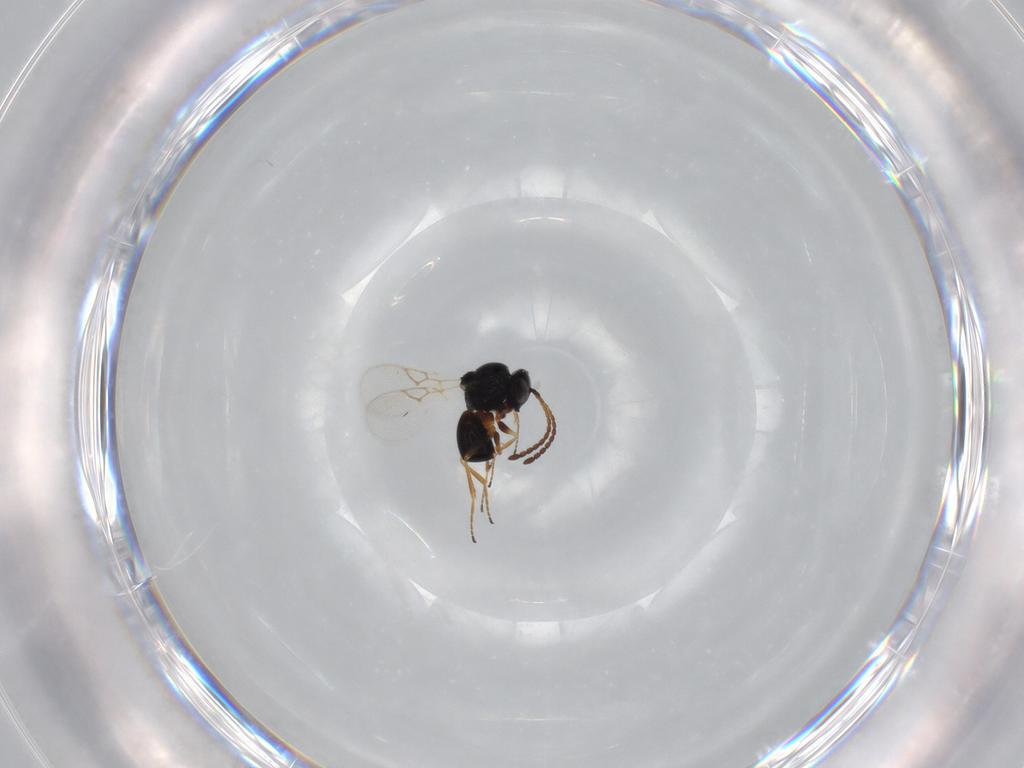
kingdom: Animalia
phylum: Arthropoda
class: Insecta
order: Hymenoptera
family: Figitidae
